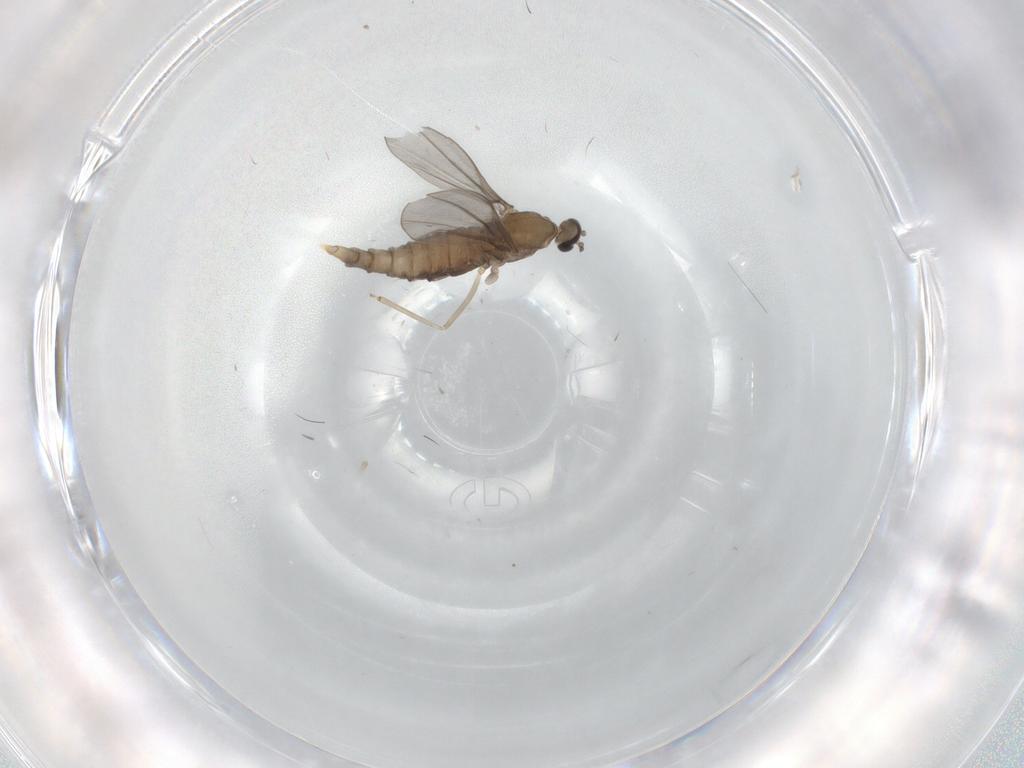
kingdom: Animalia
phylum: Arthropoda
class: Insecta
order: Diptera
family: Cecidomyiidae
